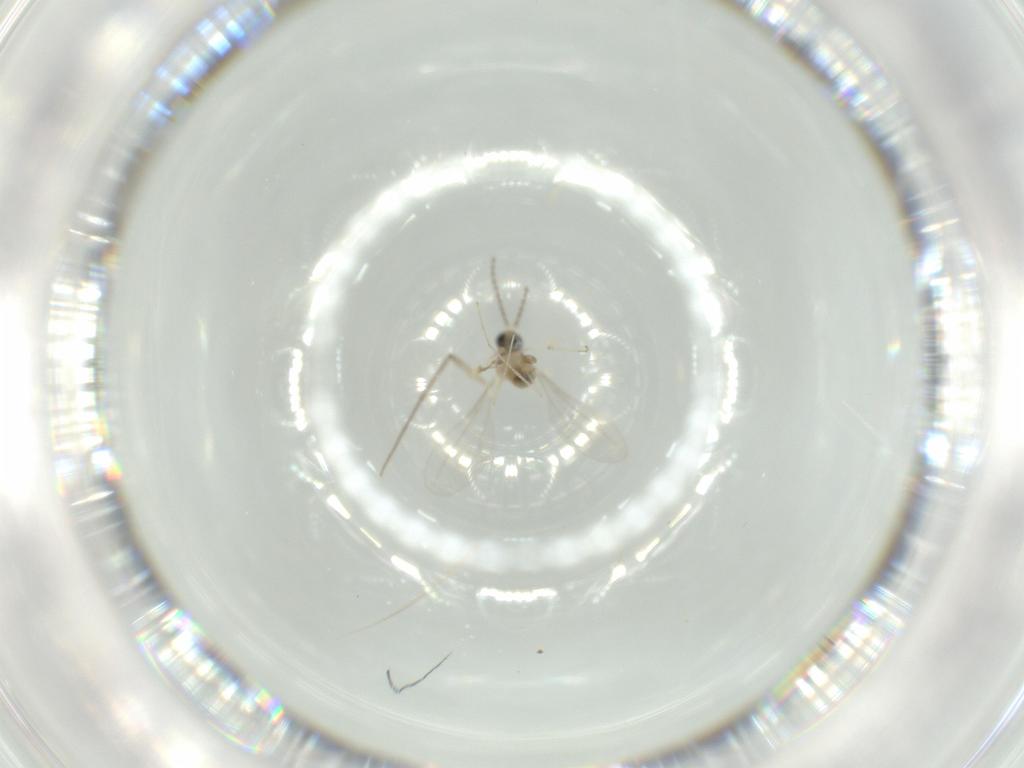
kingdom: Animalia
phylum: Arthropoda
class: Insecta
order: Diptera
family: Chironomidae
